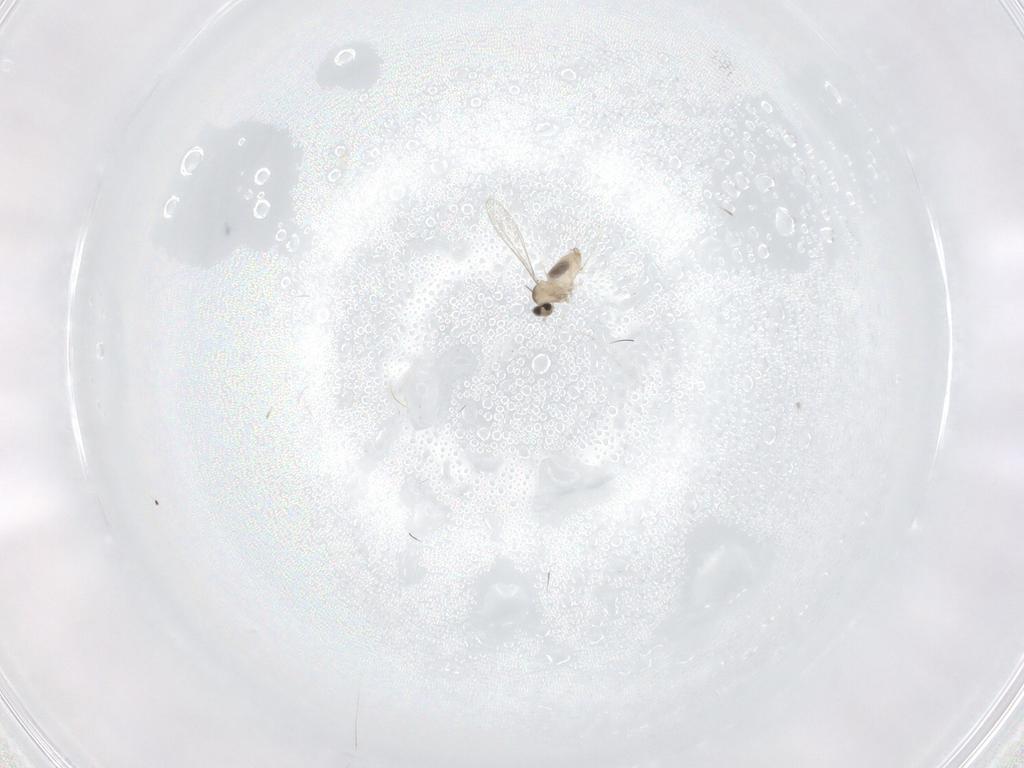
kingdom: Animalia
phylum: Arthropoda
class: Insecta
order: Diptera
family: Cecidomyiidae
